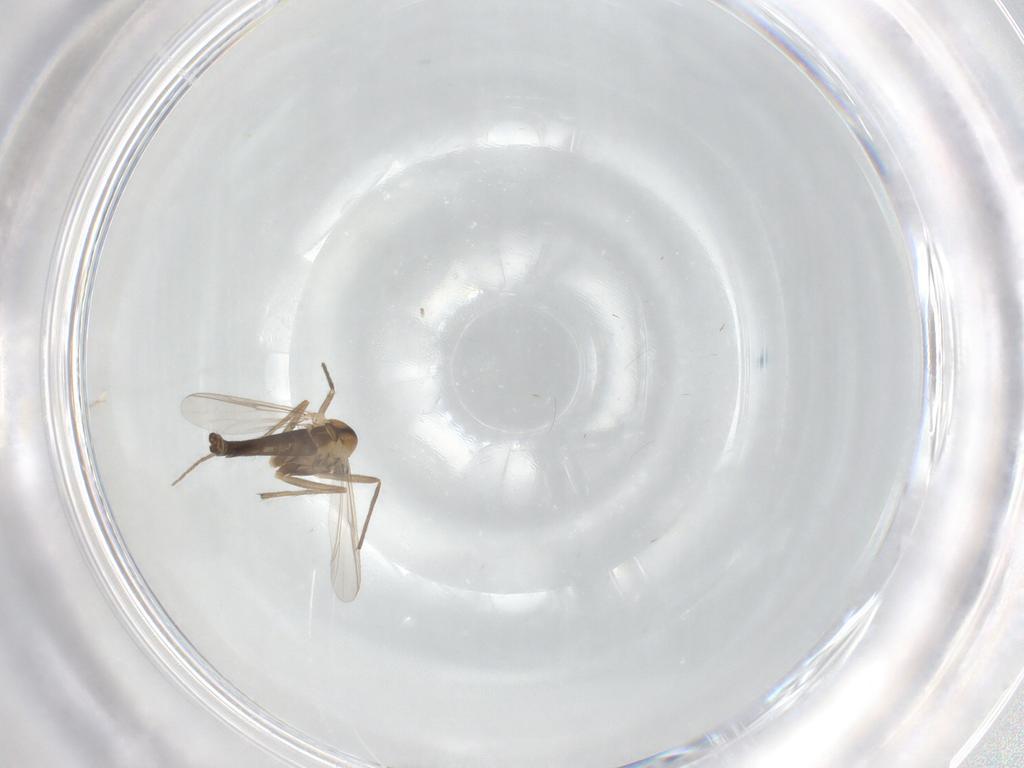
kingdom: Animalia
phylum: Arthropoda
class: Insecta
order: Diptera
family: Chironomidae
